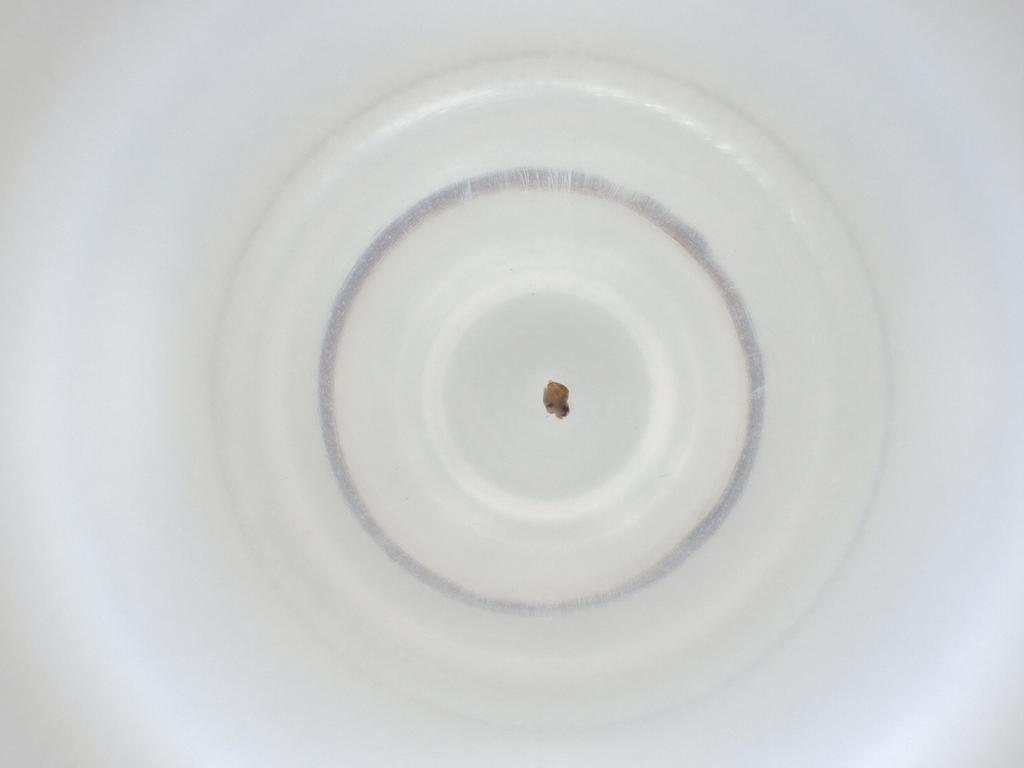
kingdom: Animalia
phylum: Arthropoda
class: Insecta
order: Diptera
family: Cecidomyiidae
